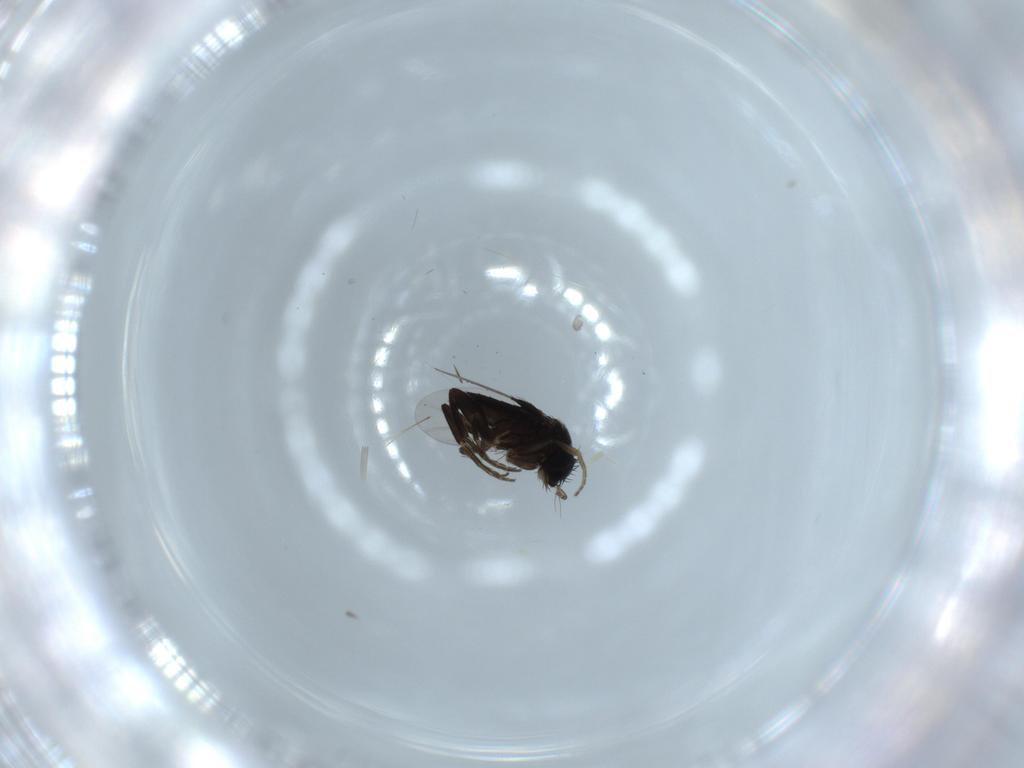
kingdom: Animalia
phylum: Arthropoda
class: Insecta
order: Diptera
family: Phoridae
